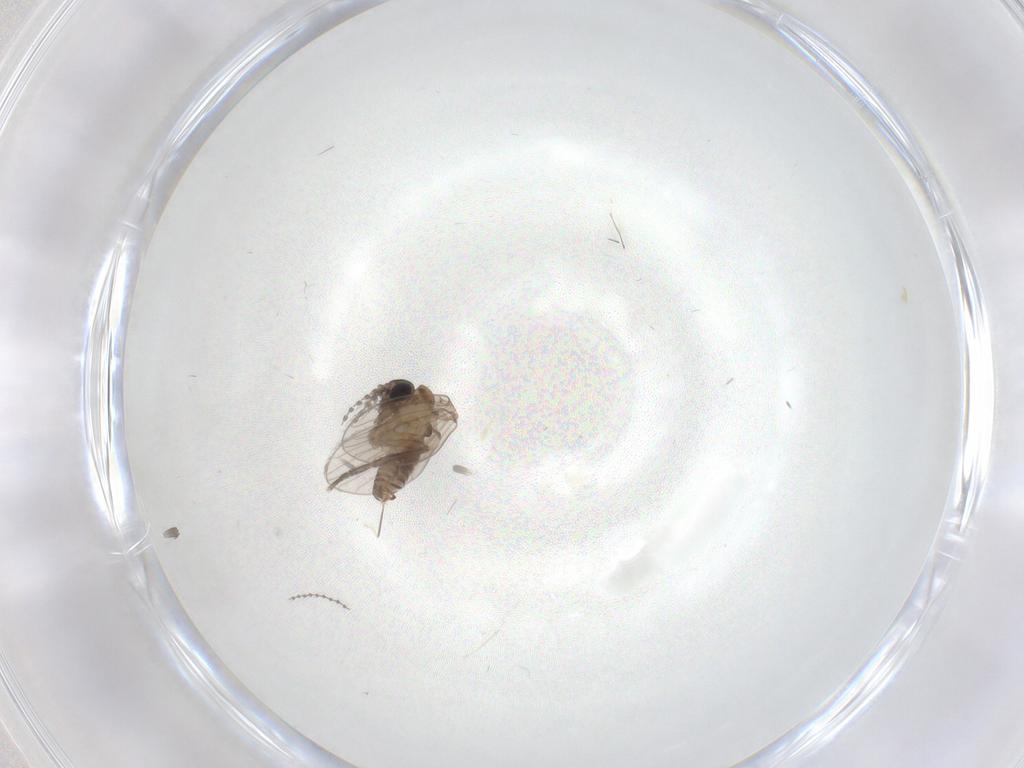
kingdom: Animalia
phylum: Arthropoda
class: Insecta
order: Diptera
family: Psychodidae
